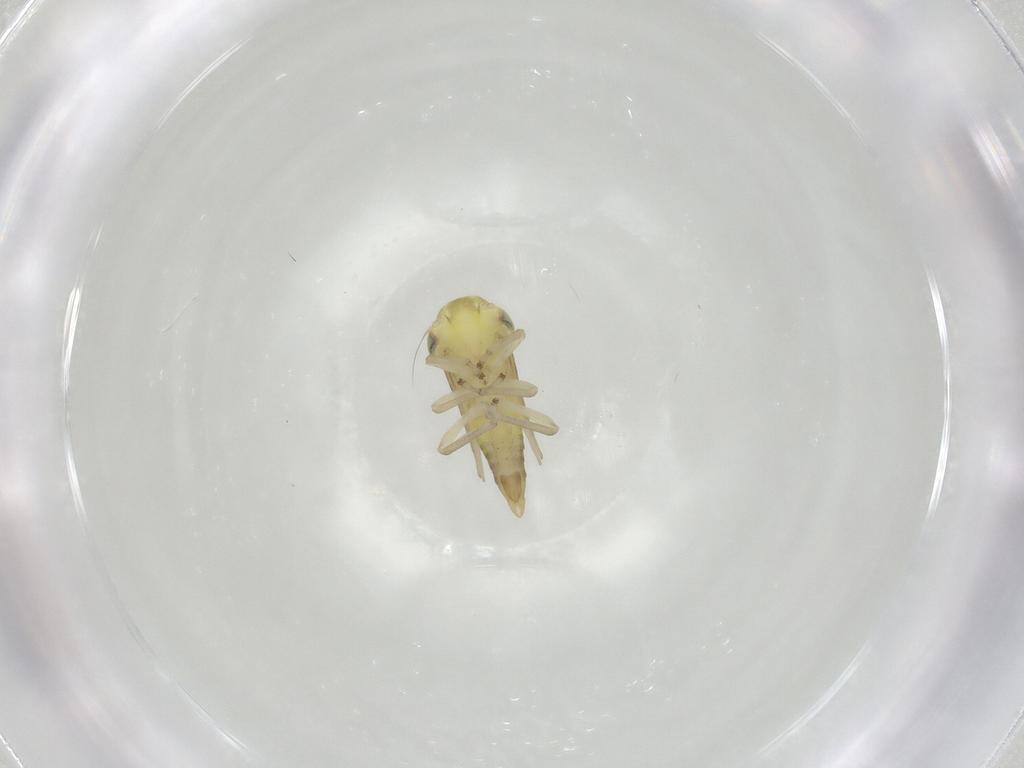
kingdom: Animalia
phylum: Arthropoda
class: Insecta
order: Hemiptera
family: Cicadellidae
